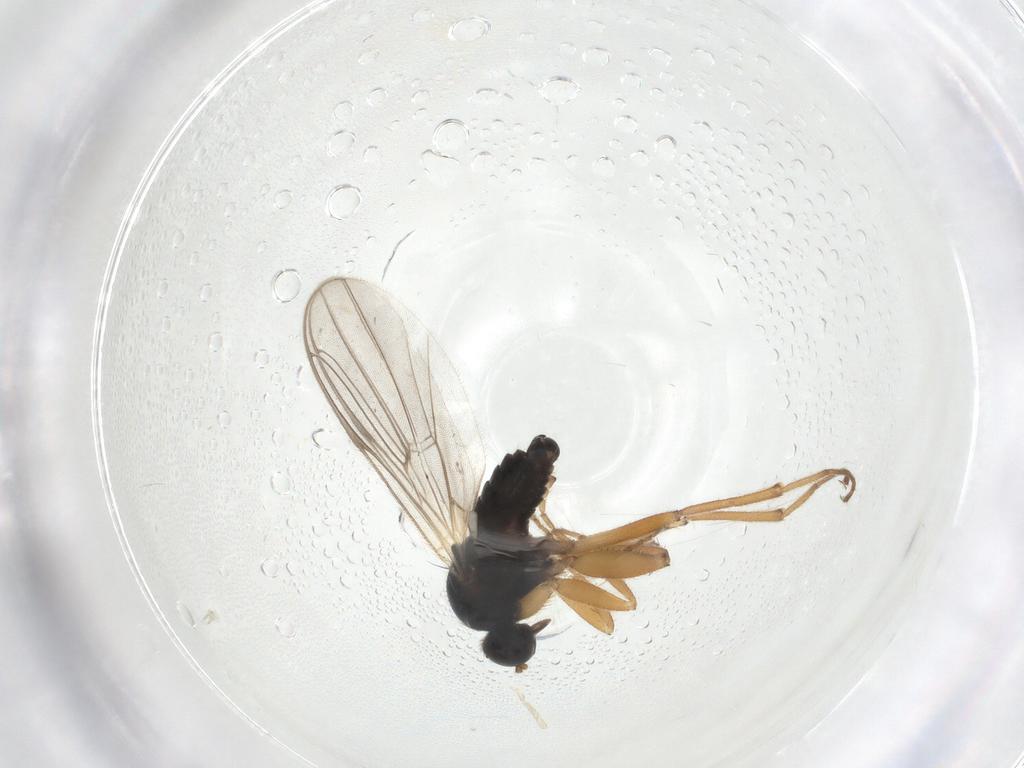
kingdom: Animalia
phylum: Arthropoda
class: Insecta
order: Diptera
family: Hybotidae
